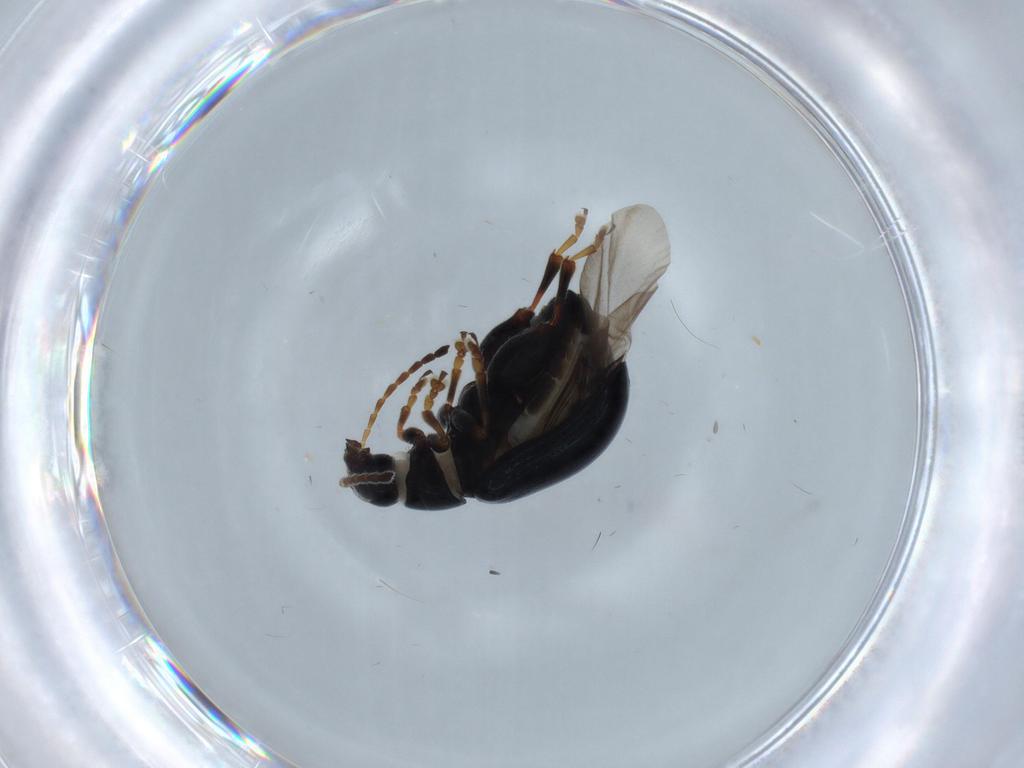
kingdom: Animalia
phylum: Arthropoda
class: Insecta
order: Coleoptera
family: Chrysomelidae
